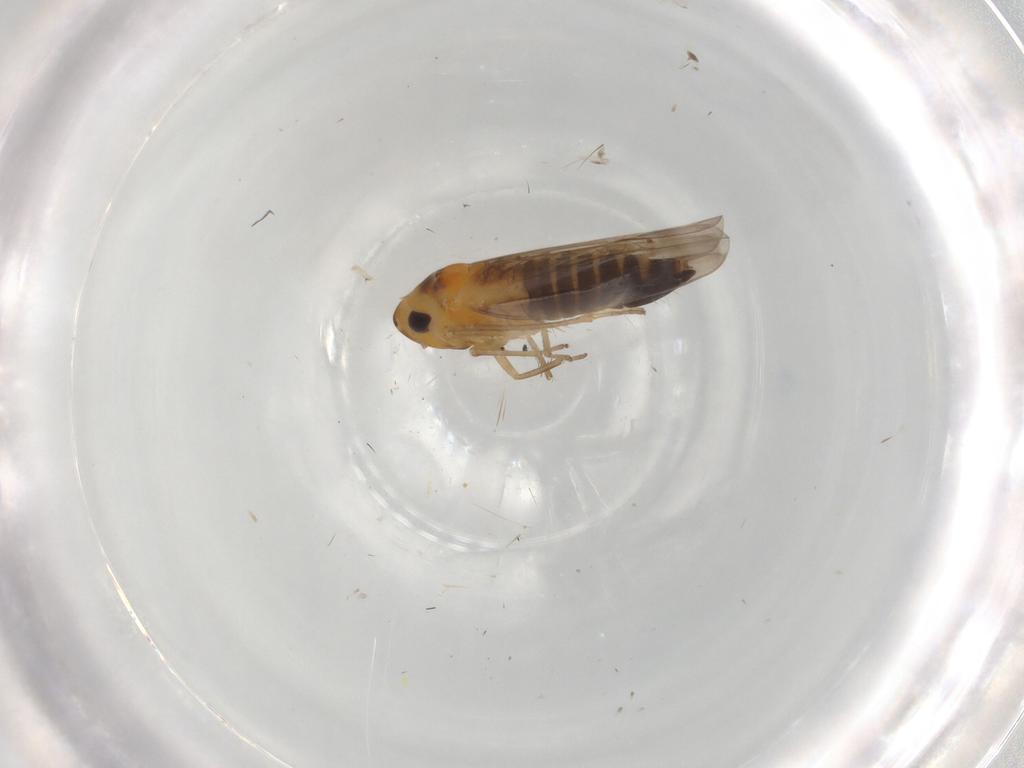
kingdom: Animalia
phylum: Arthropoda
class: Insecta
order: Hemiptera
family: Cicadellidae
